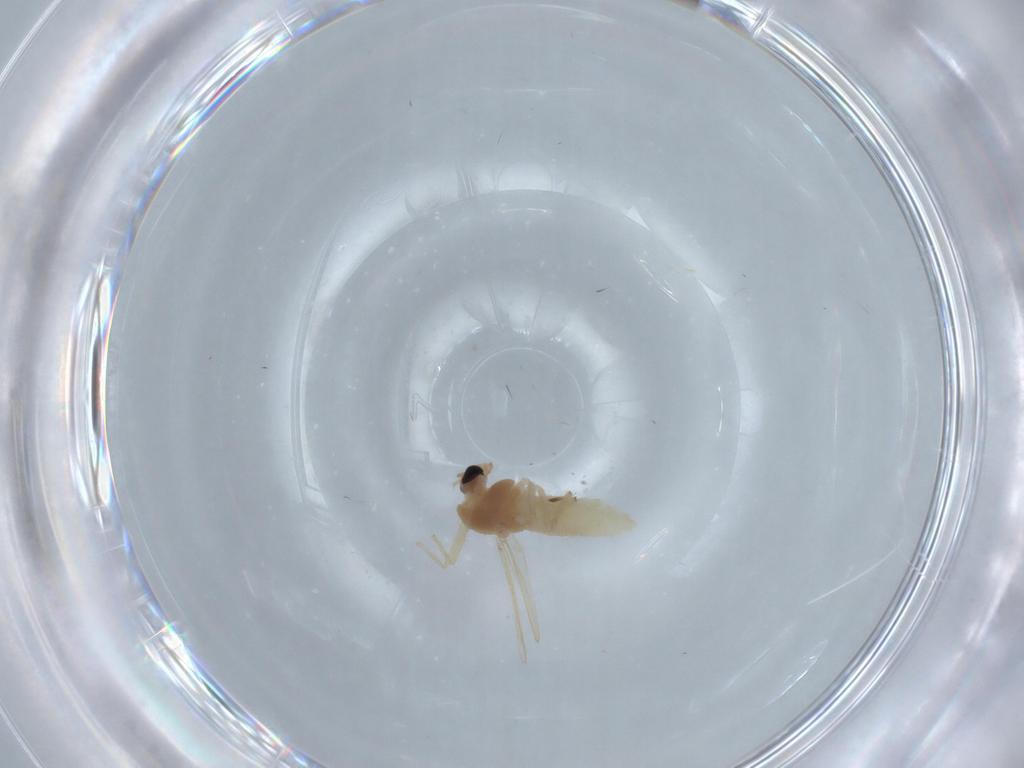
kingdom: Animalia
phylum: Arthropoda
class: Insecta
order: Diptera
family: Chironomidae
